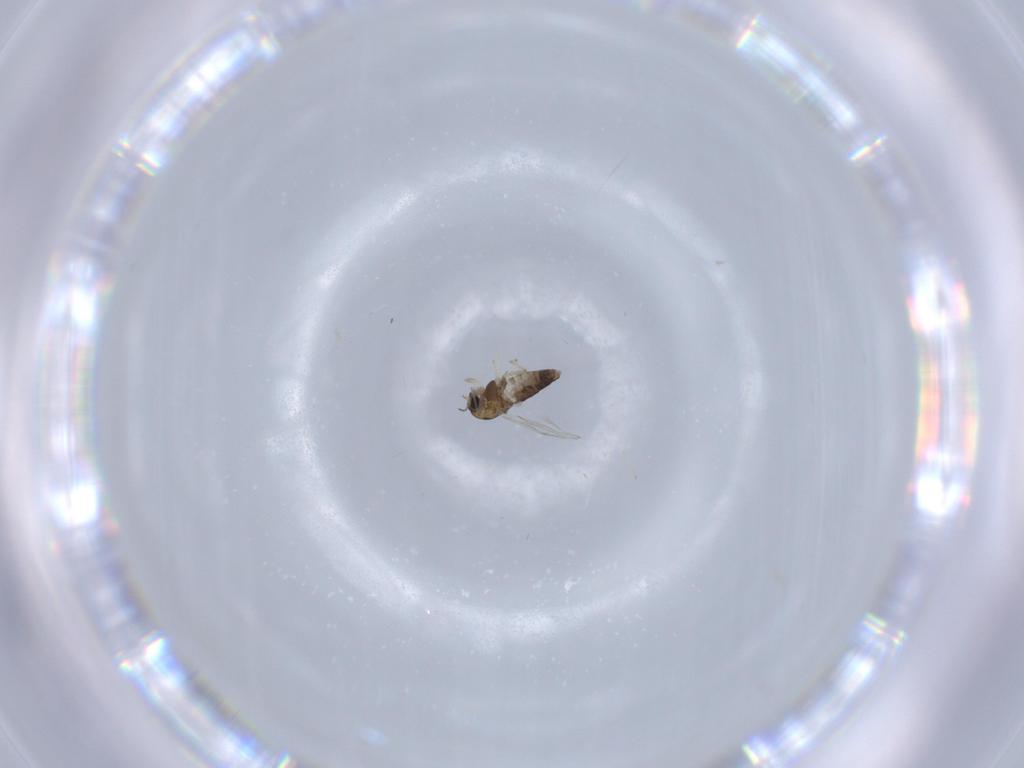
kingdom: Animalia
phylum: Arthropoda
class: Insecta
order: Diptera
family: Chironomidae
